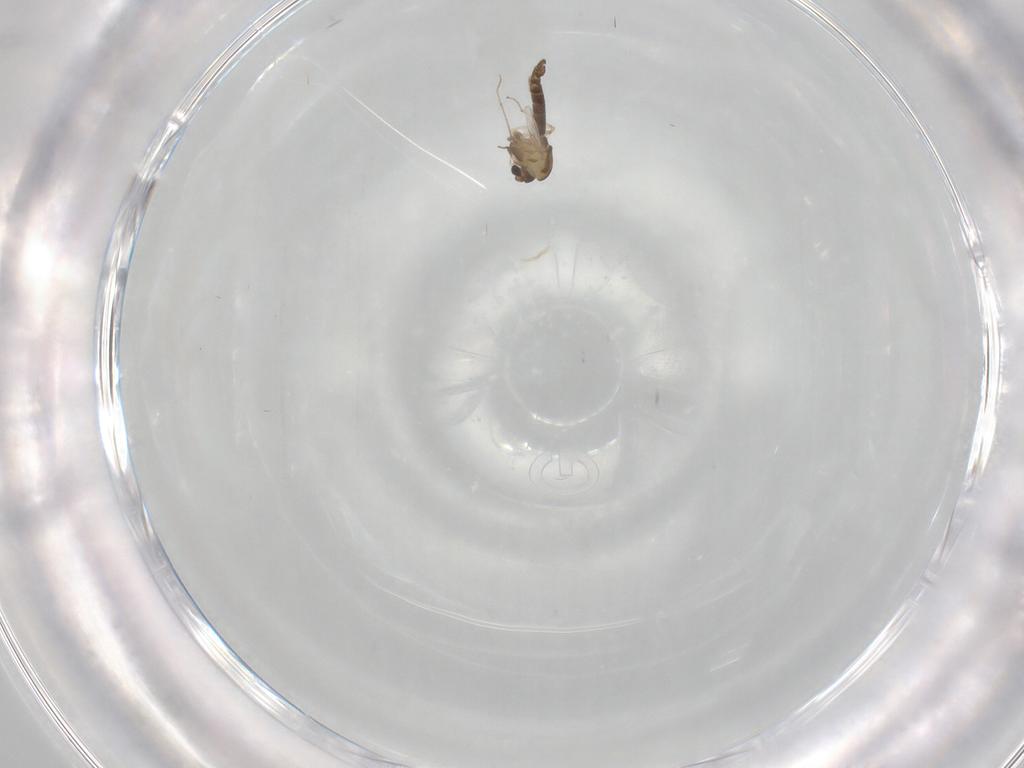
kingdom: Animalia
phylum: Arthropoda
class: Insecta
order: Diptera
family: Chironomidae
